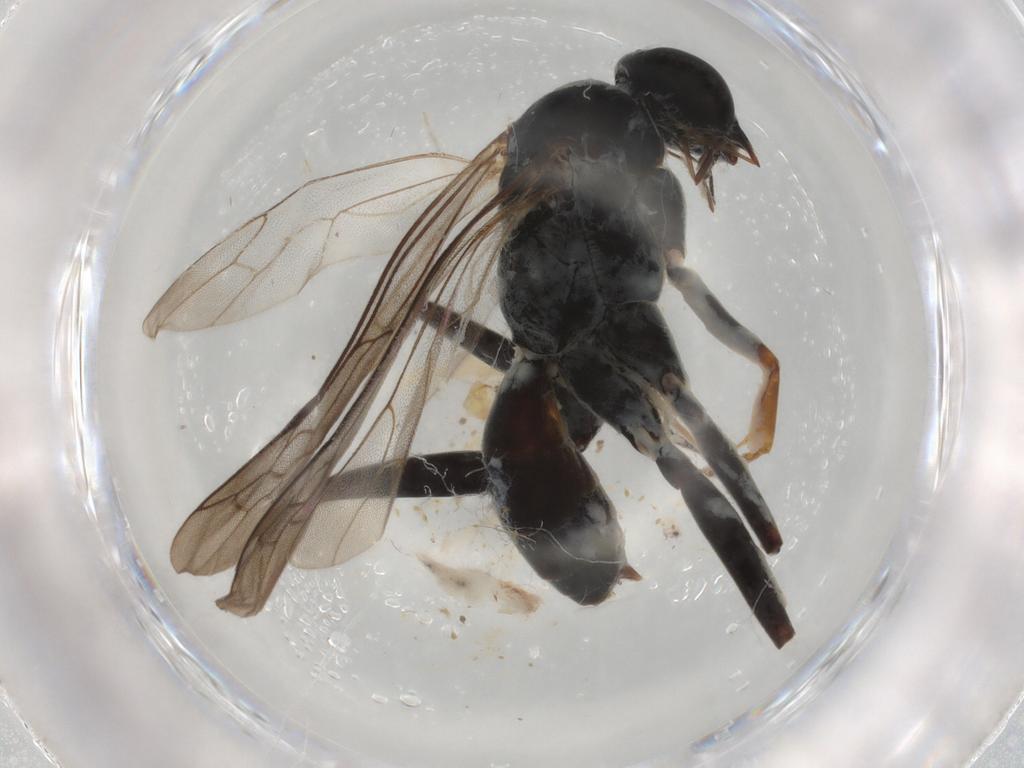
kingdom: Animalia
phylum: Arthropoda
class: Insecta
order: Hymenoptera
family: Pompilidae
